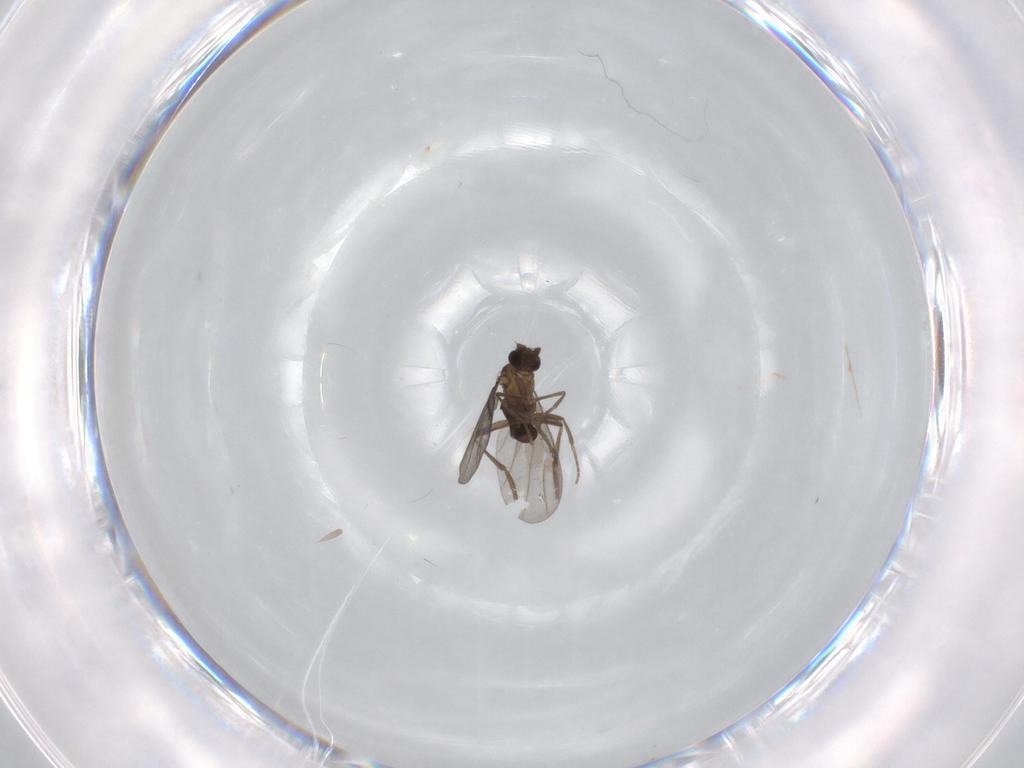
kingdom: Animalia
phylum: Arthropoda
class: Insecta
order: Diptera
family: Phoridae
